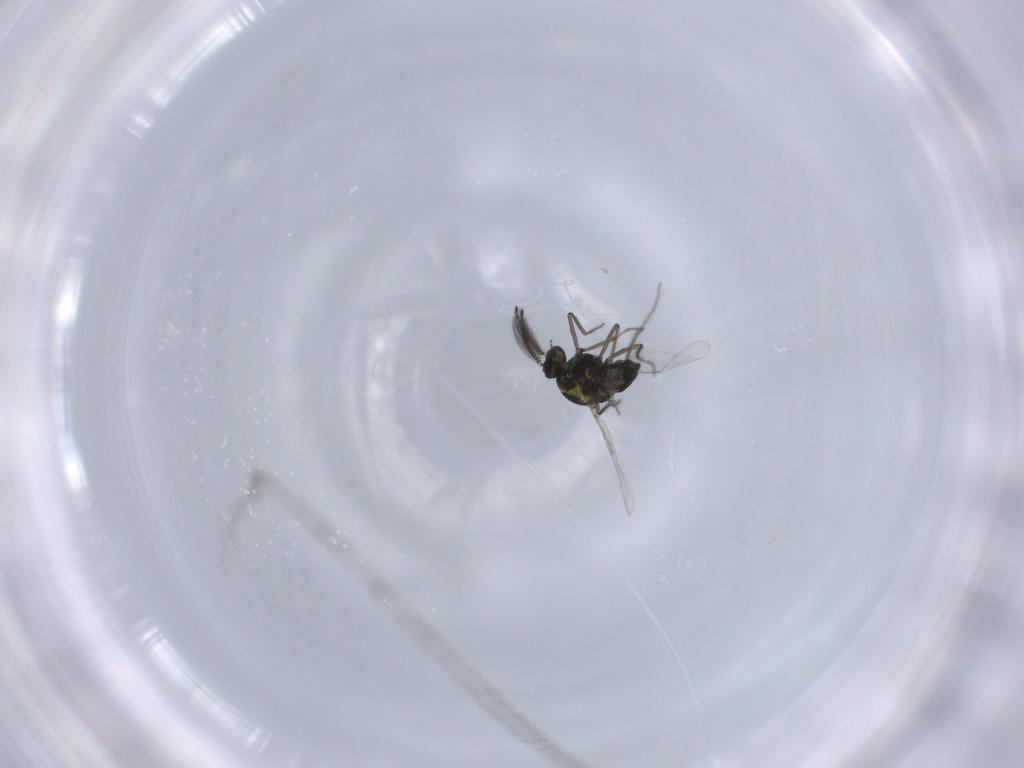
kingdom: Animalia
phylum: Arthropoda
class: Insecta
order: Diptera
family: Ceratopogonidae
